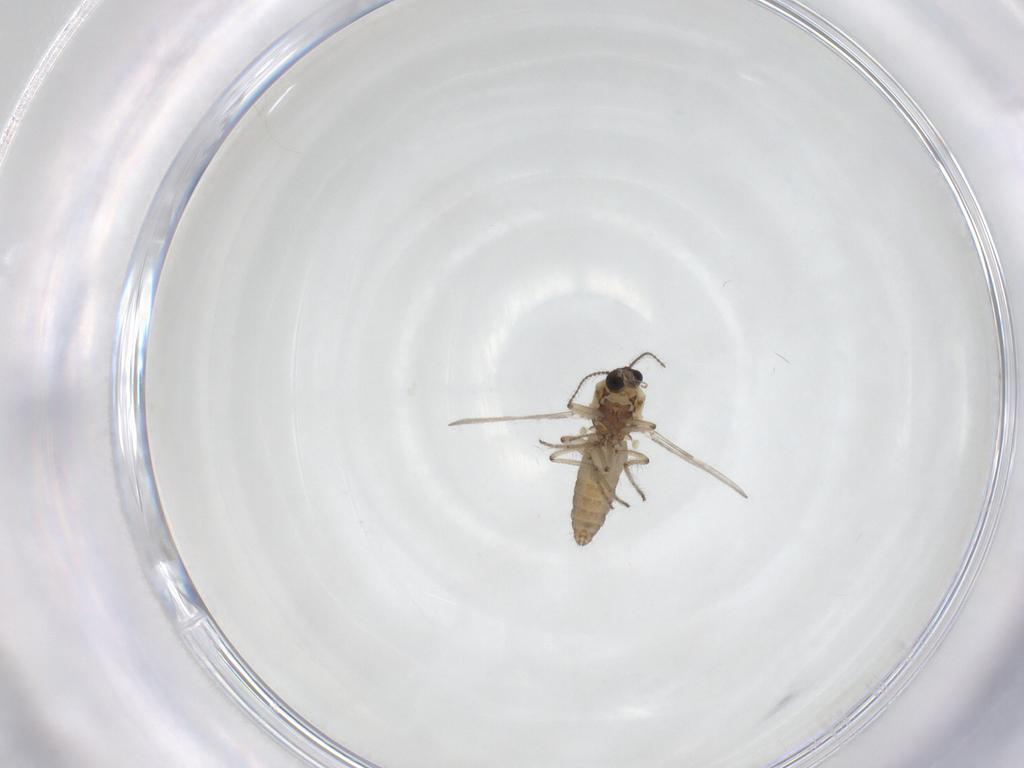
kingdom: Animalia
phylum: Arthropoda
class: Insecta
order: Diptera
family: Ceratopogonidae
